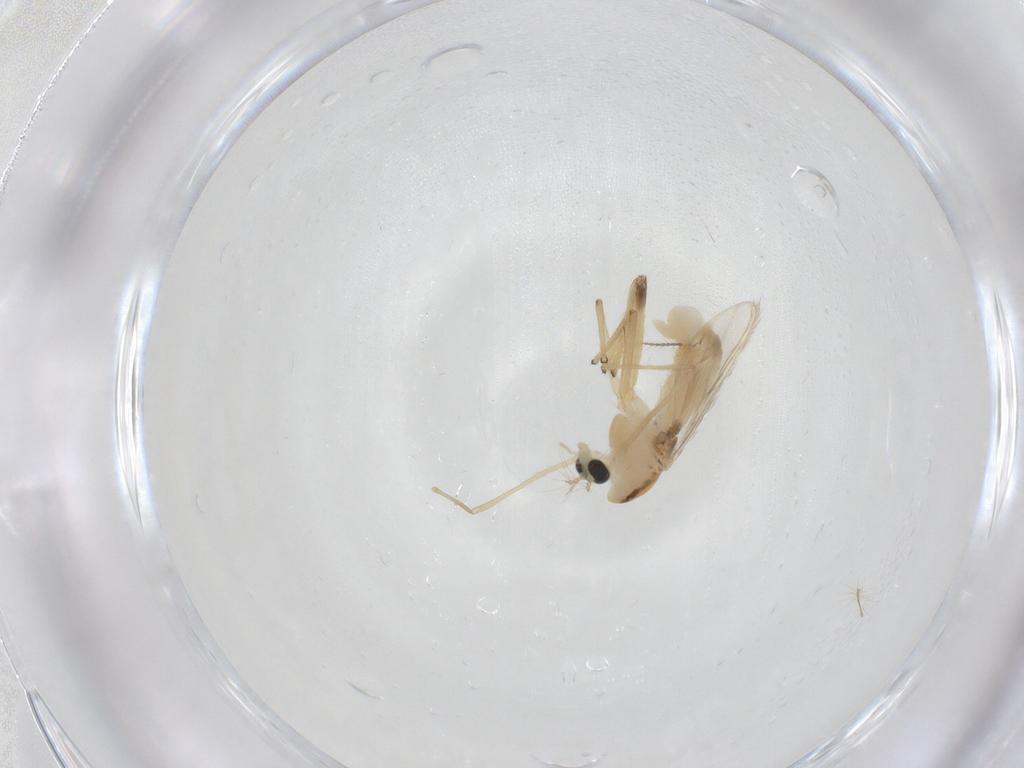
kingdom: Animalia
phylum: Arthropoda
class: Insecta
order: Diptera
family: Chironomidae
